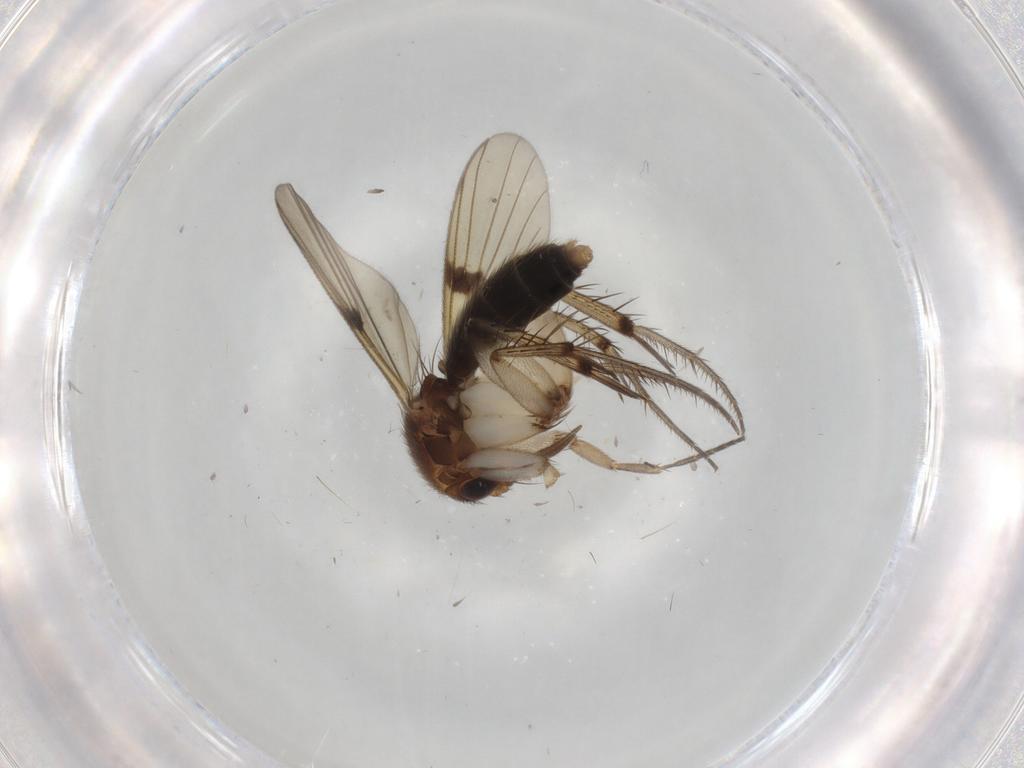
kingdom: Animalia
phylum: Arthropoda
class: Insecta
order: Diptera
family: Mycetophilidae
